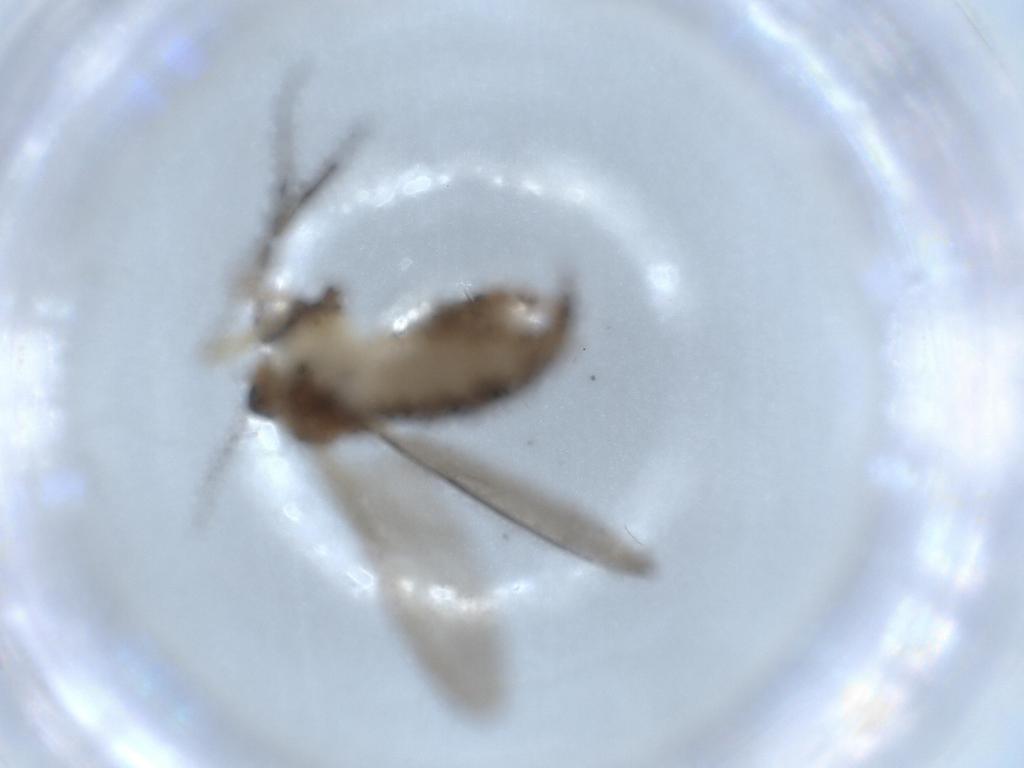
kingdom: Animalia
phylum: Arthropoda
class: Insecta
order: Diptera
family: Sciaridae
